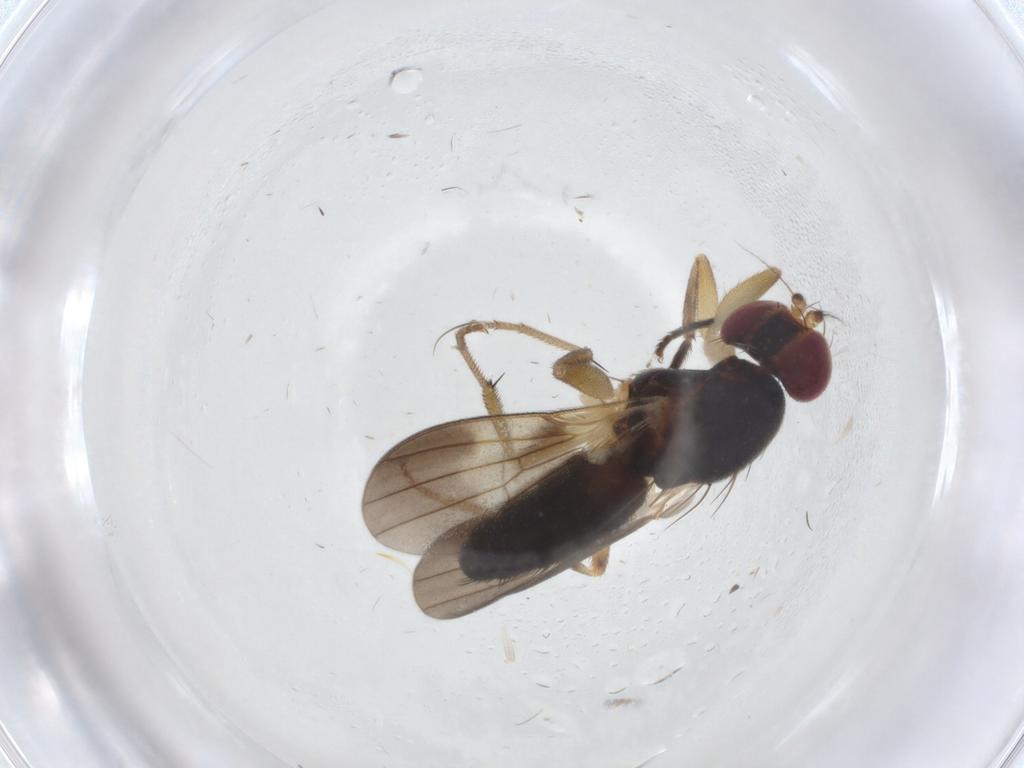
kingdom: Animalia
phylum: Arthropoda
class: Insecta
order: Diptera
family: Clusiidae
